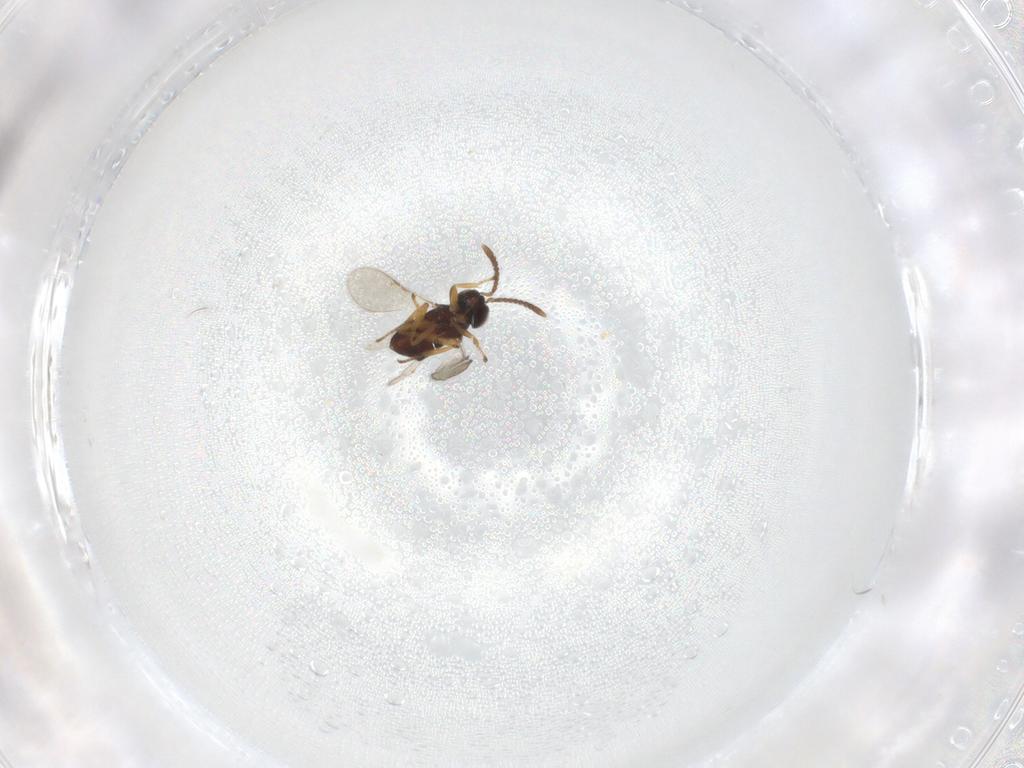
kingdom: Animalia
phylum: Arthropoda
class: Insecta
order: Hymenoptera
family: Encyrtidae
